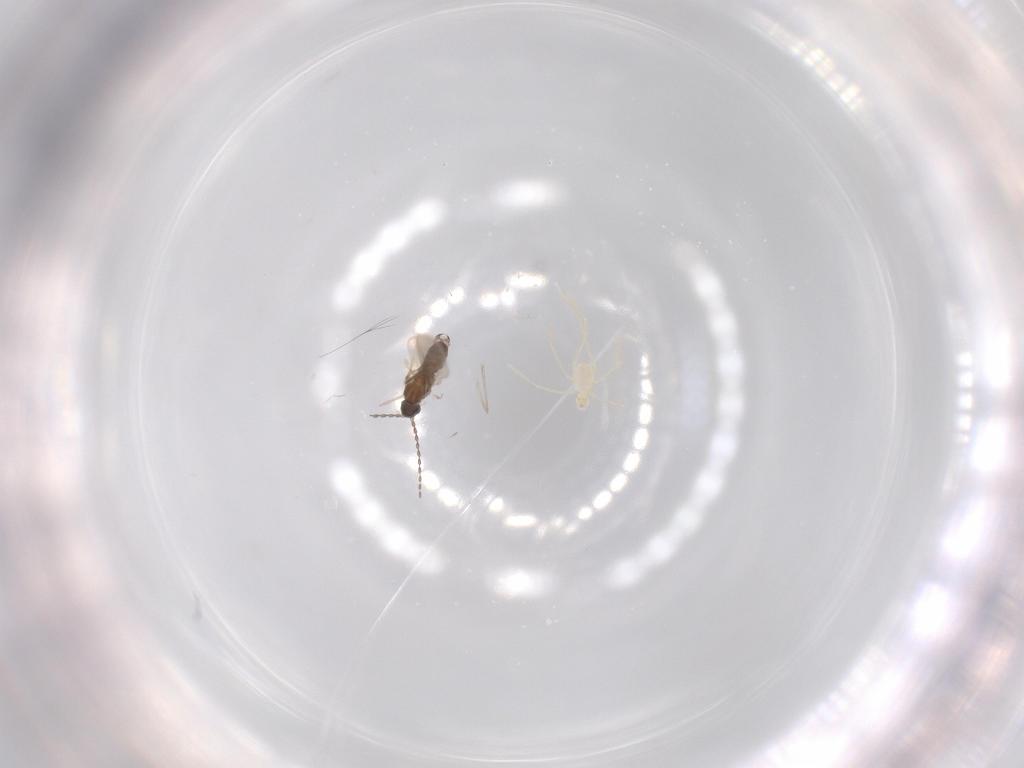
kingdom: Animalia
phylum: Arthropoda
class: Insecta
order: Diptera
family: Cecidomyiidae
